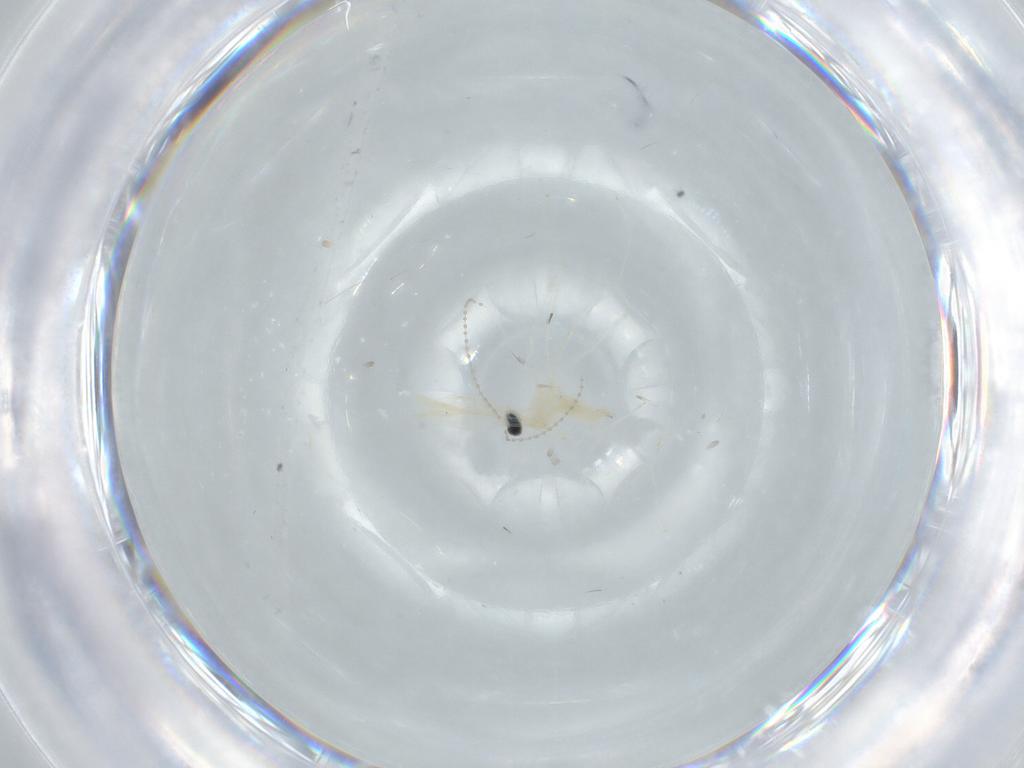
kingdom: Animalia
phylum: Arthropoda
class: Insecta
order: Diptera
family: Cecidomyiidae
